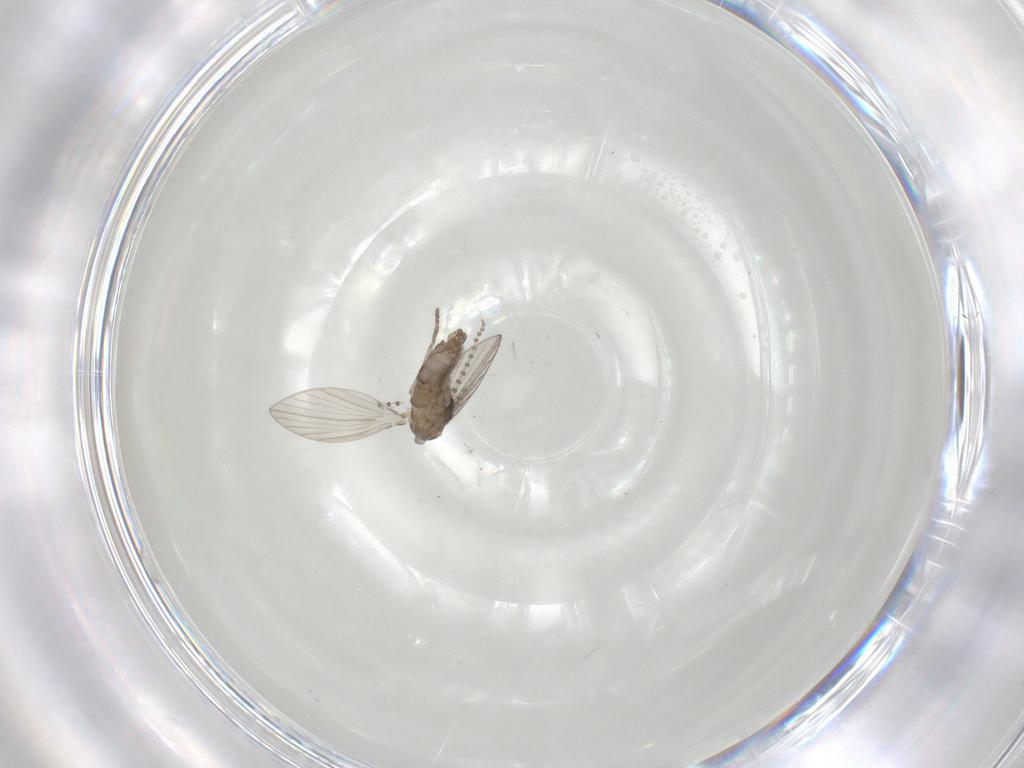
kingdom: Animalia
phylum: Arthropoda
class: Insecta
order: Diptera
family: Psychodidae
